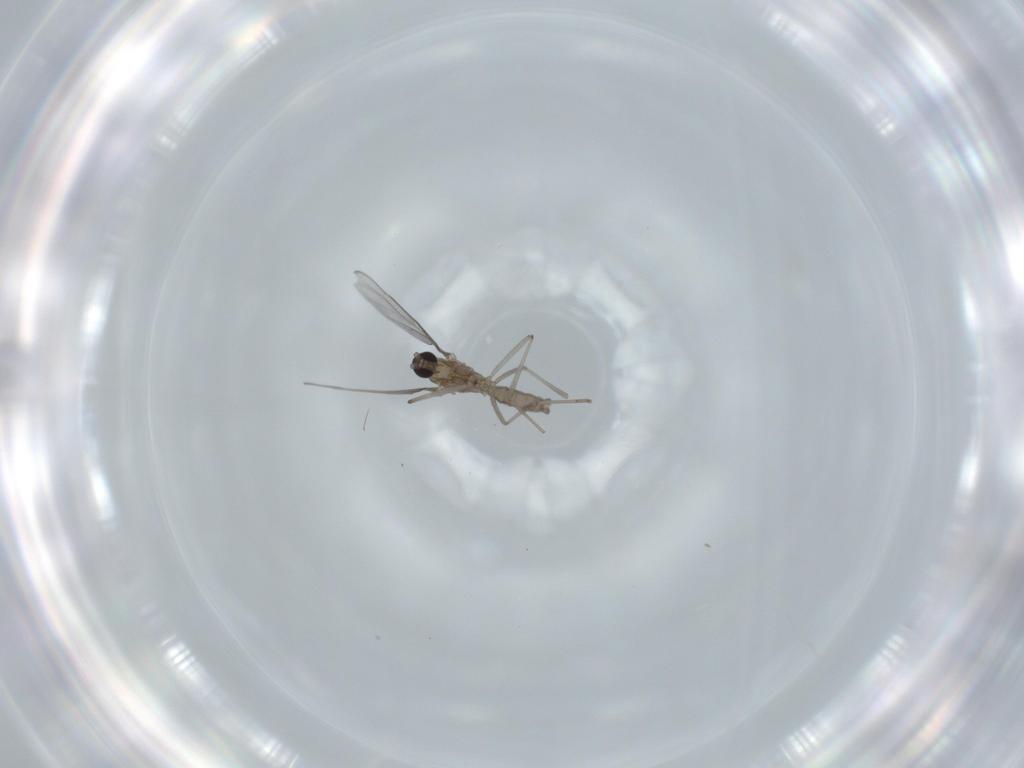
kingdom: Animalia
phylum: Arthropoda
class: Insecta
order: Diptera
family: Cecidomyiidae
